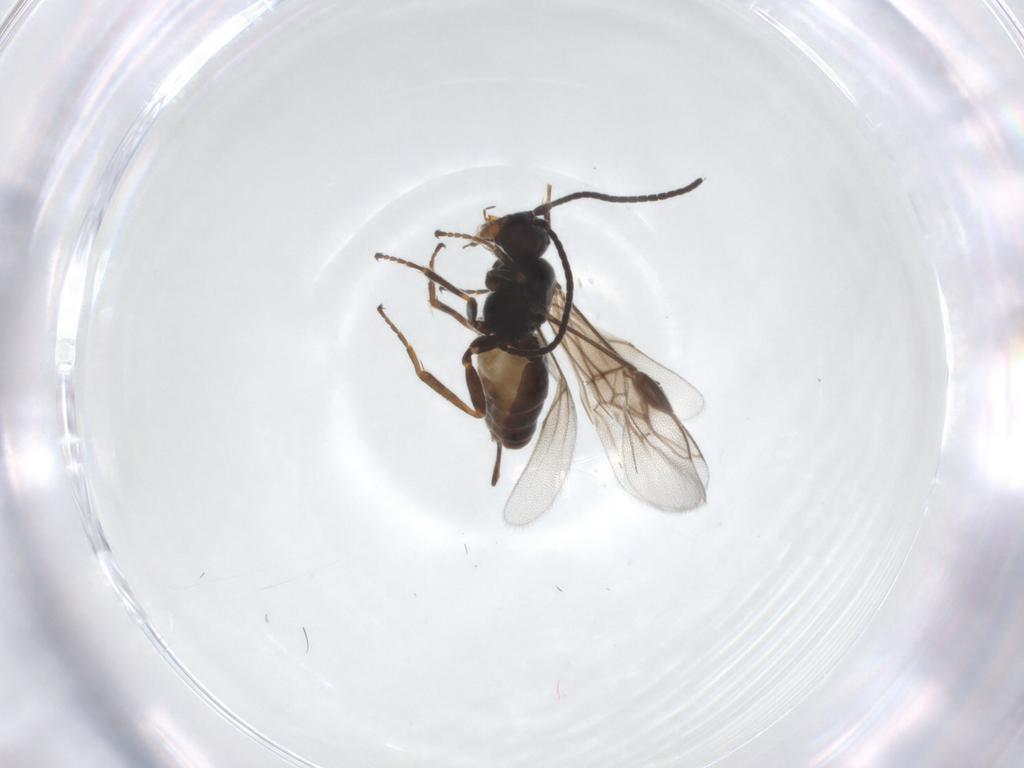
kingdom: Animalia
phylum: Arthropoda
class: Insecta
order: Hymenoptera
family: Braconidae
